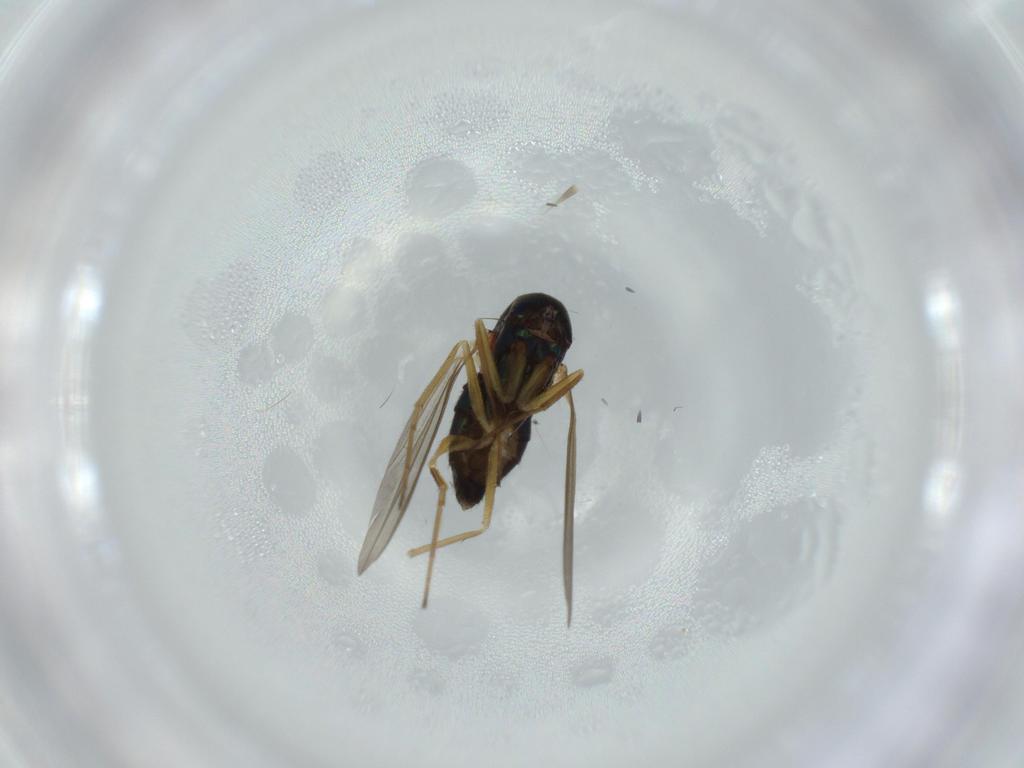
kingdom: Animalia
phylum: Arthropoda
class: Insecta
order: Diptera
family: Dolichopodidae
